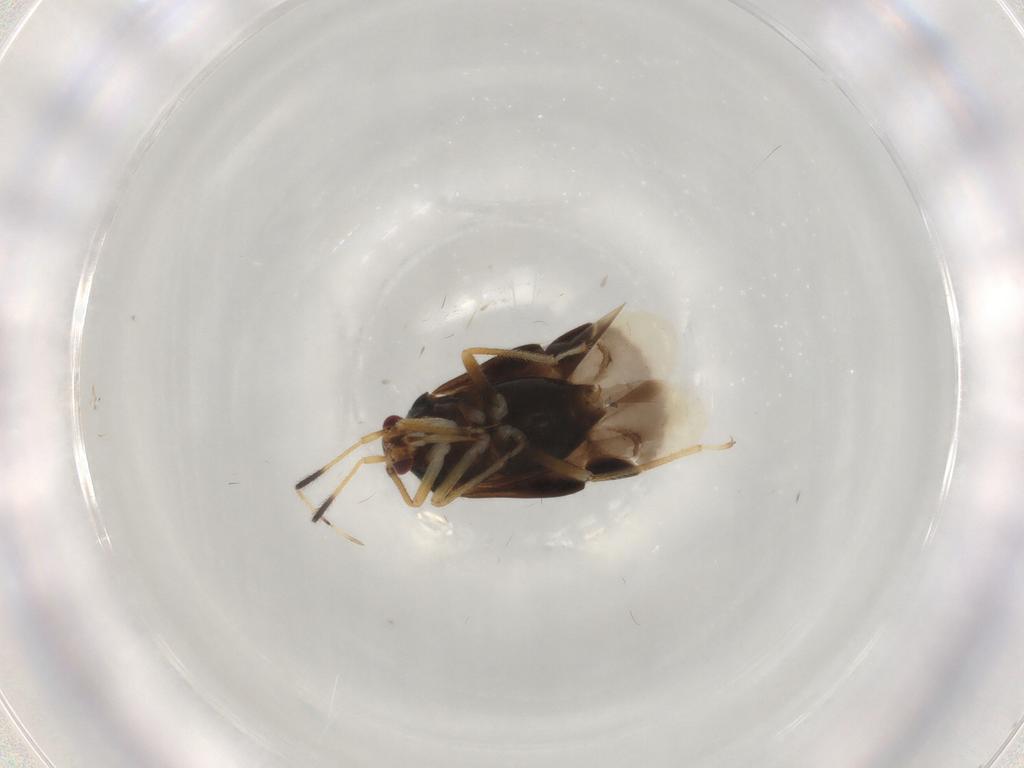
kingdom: Animalia
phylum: Arthropoda
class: Insecta
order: Hemiptera
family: Miridae
